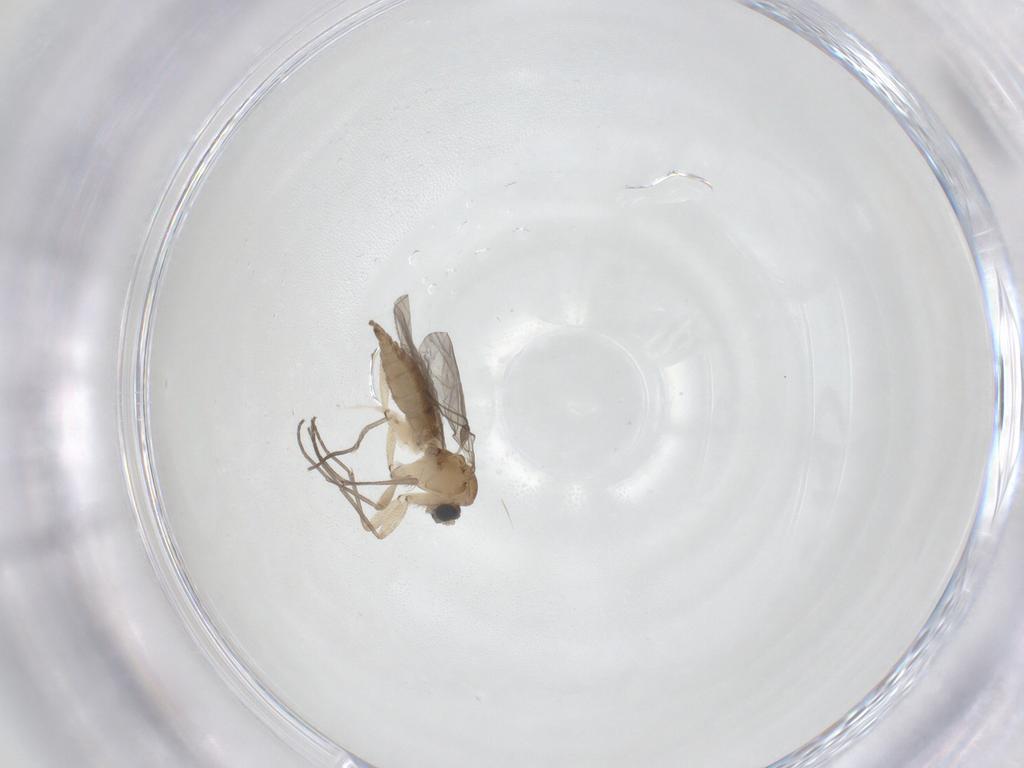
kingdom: Animalia
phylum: Arthropoda
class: Insecta
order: Diptera
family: Sciaridae
